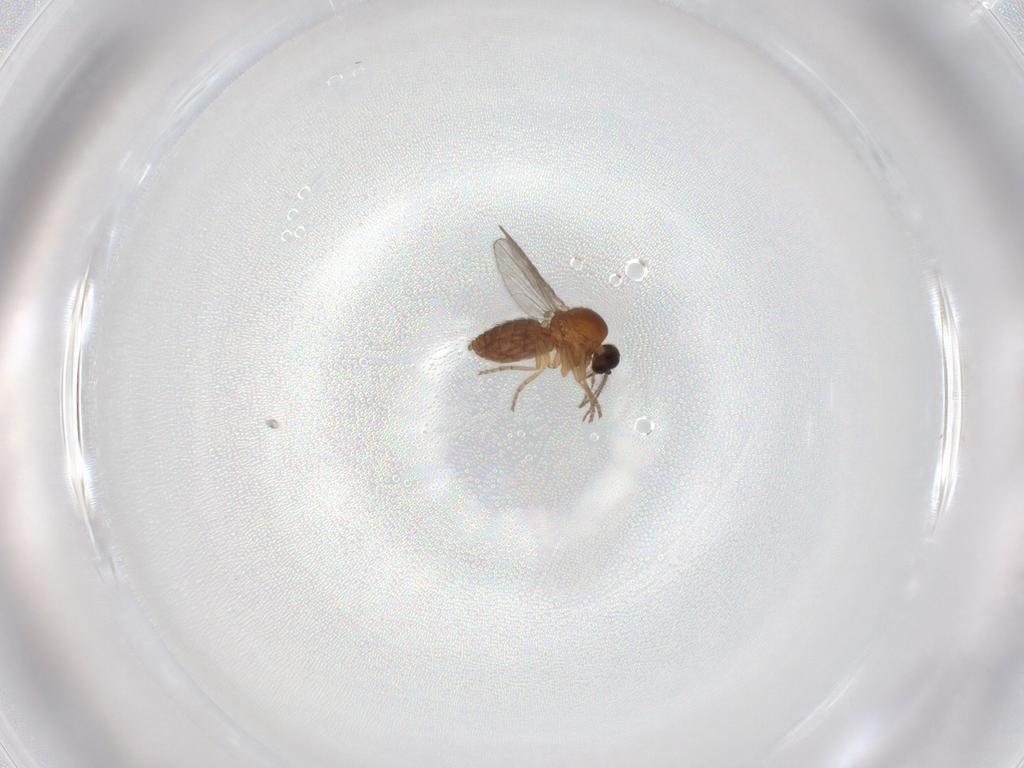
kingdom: Animalia
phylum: Arthropoda
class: Insecta
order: Diptera
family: Ceratopogonidae
